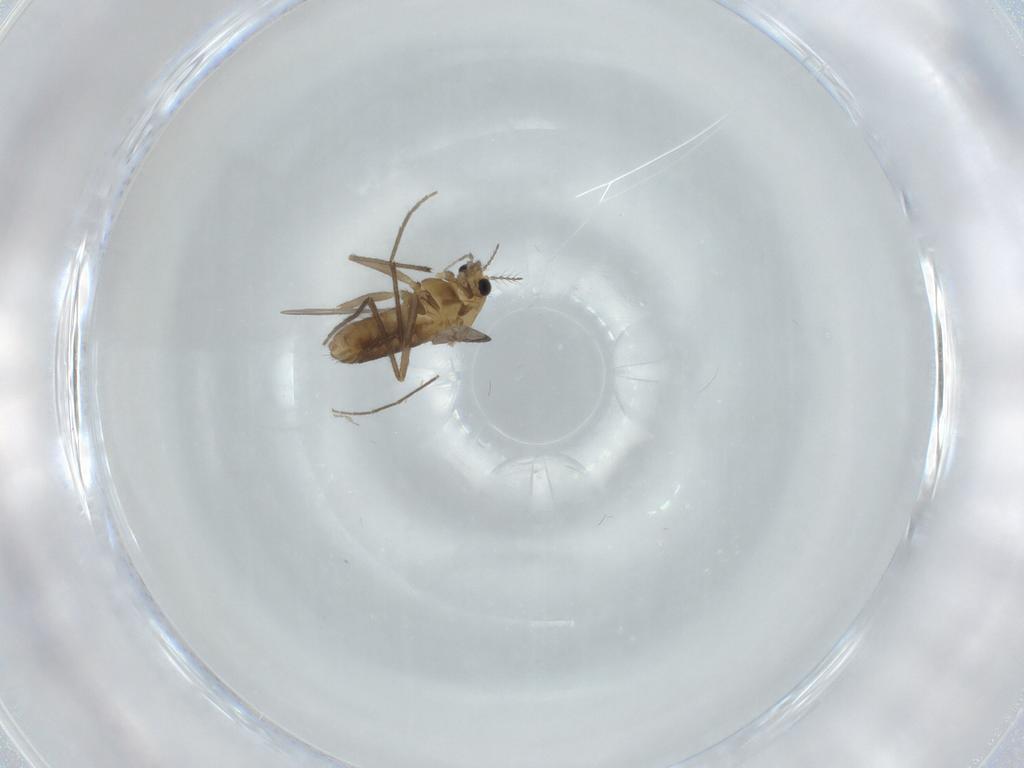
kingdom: Animalia
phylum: Arthropoda
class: Insecta
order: Diptera
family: Chironomidae
